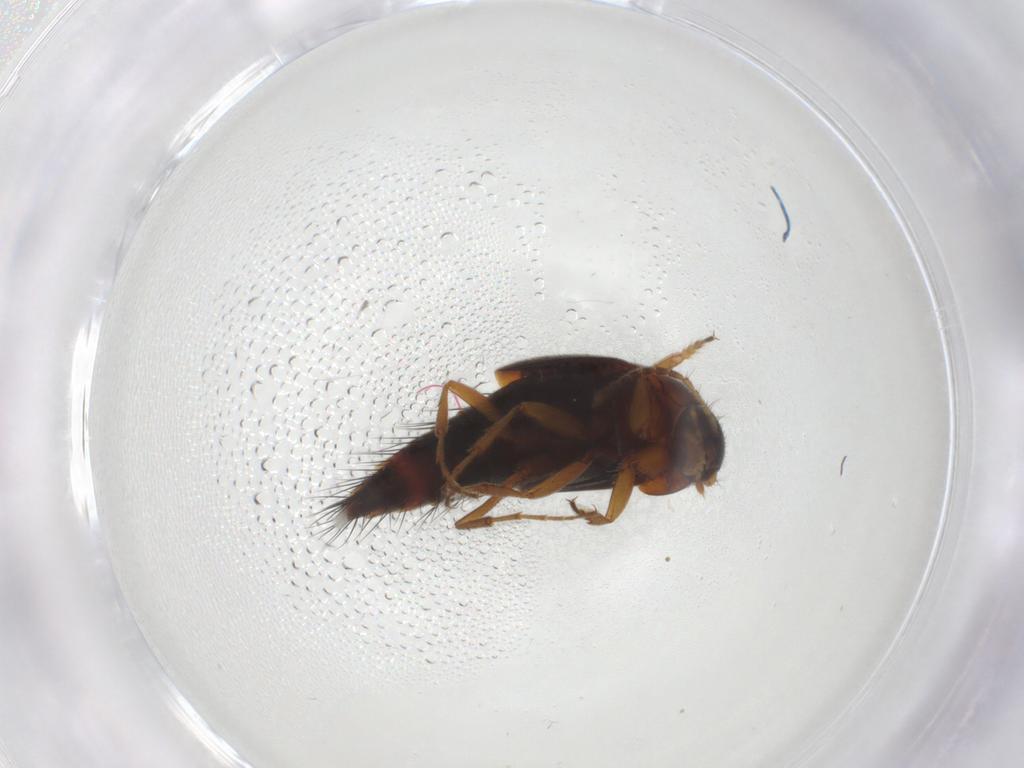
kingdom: Animalia
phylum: Arthropoda
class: Insecta
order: Coleoptera
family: Staphylinidae
